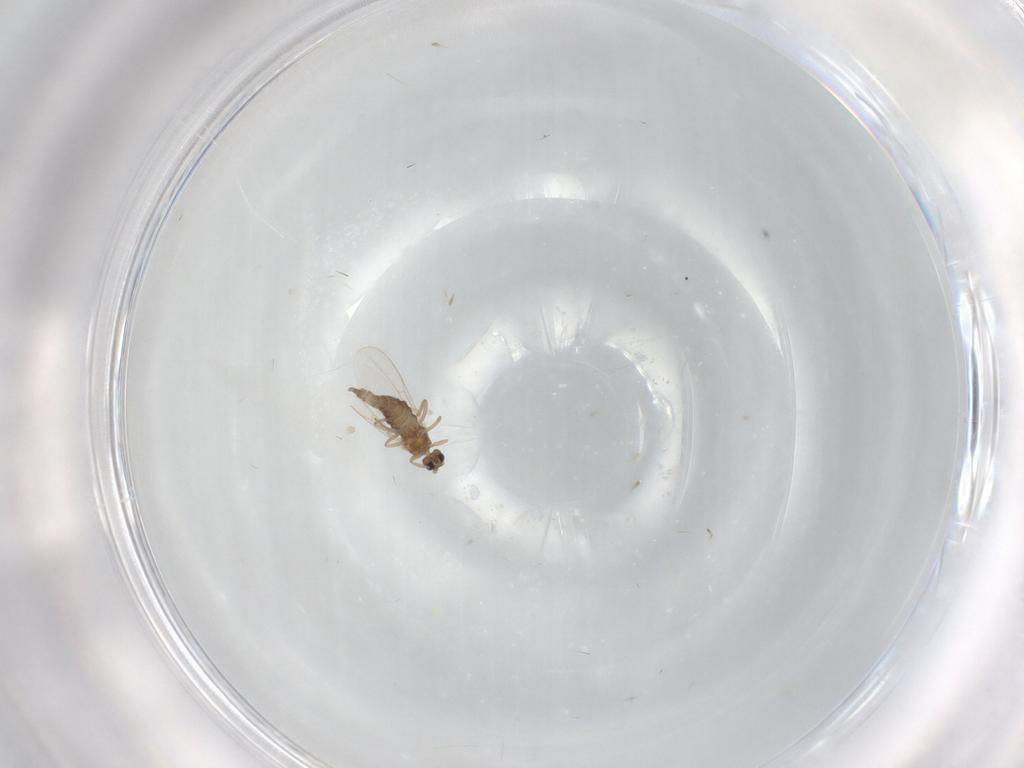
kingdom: Animalia
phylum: Arthropoda
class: Insecta
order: Diptera
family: Cecidomyiidae
